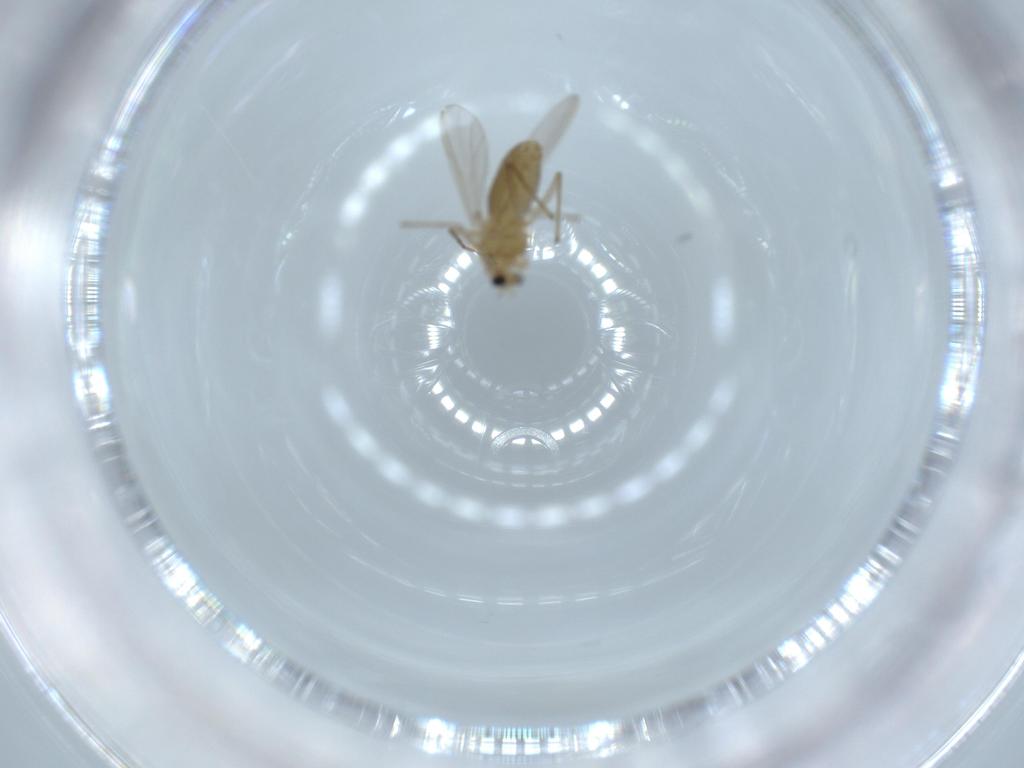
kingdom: Animalia
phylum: Arthropoda
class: Insecta
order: Diptera
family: Chironomidae
